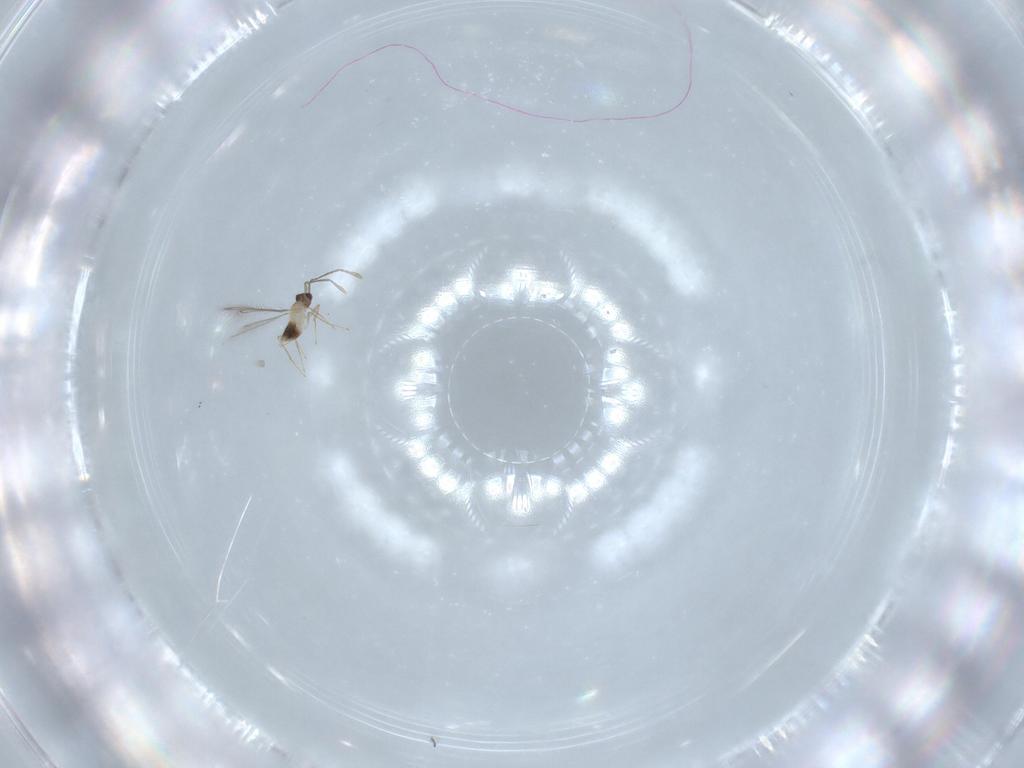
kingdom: Animalia
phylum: Arthropoda
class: Insecta
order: Hymenoptera
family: Mymaridae
